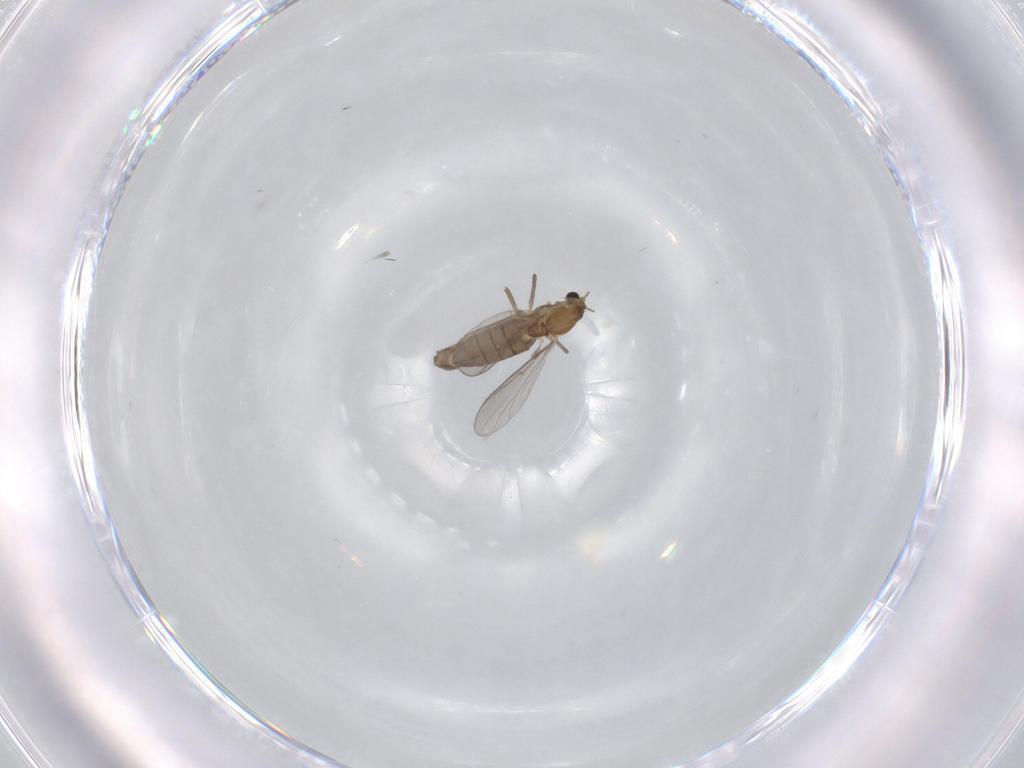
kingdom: Animalia
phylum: Arthropoda
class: Insecta
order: Diptera
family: Chironomidae
